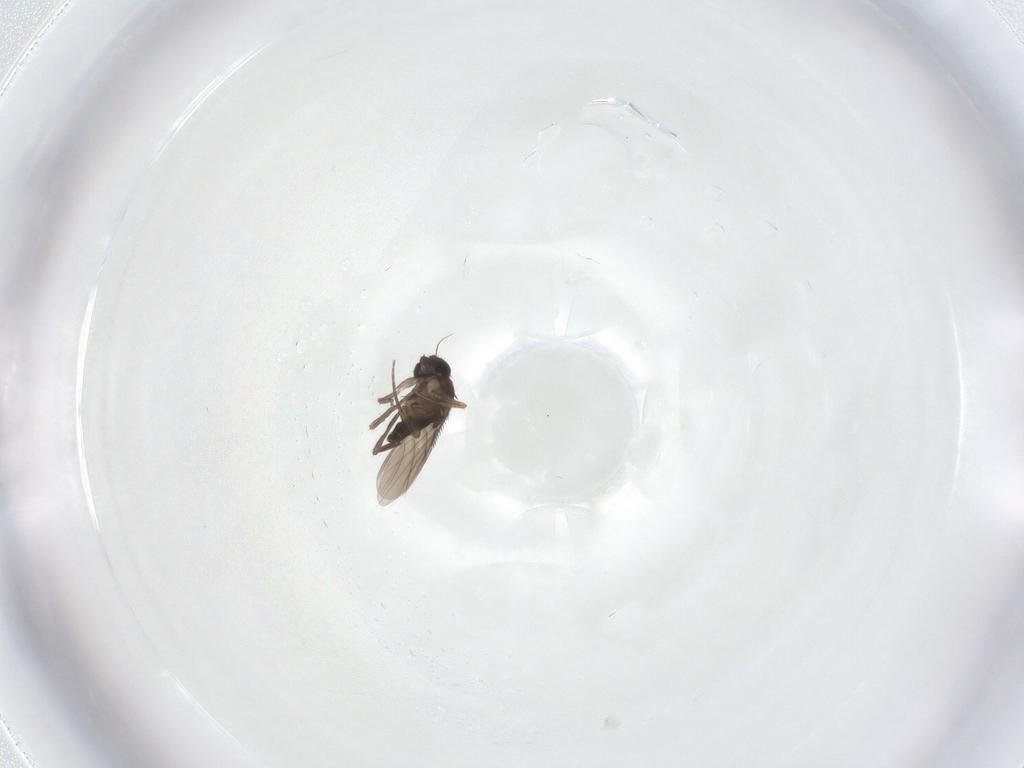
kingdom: Animalia
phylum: Arthropoda
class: Insecta
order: Diptera
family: Phoridae
